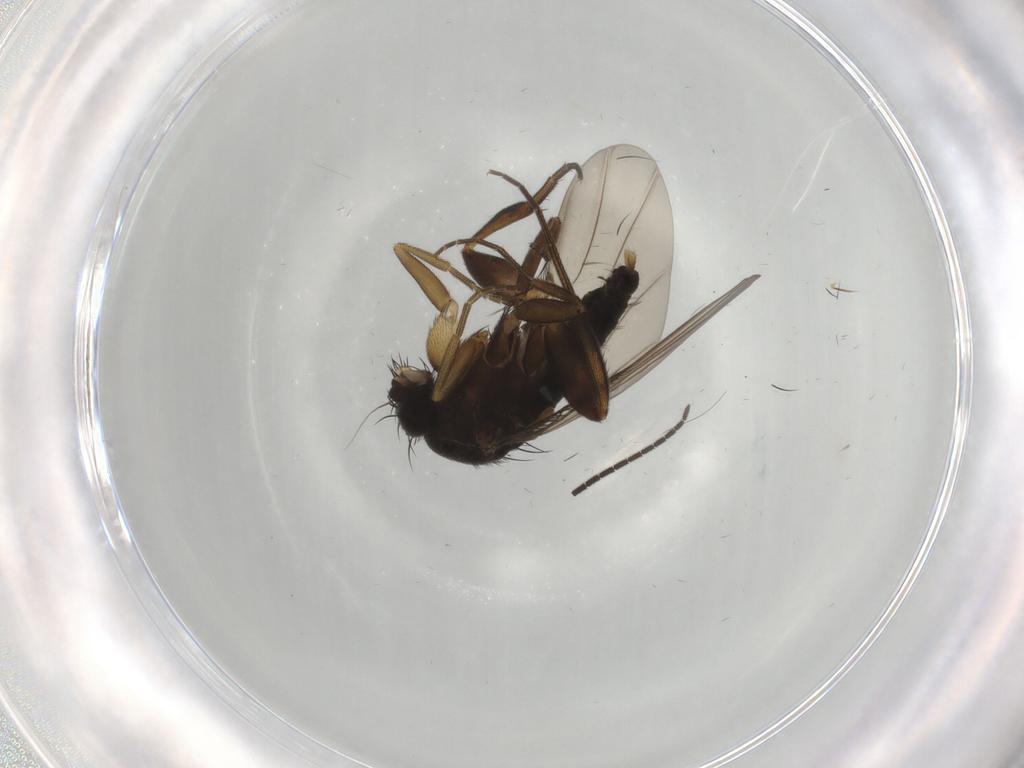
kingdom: Animalia
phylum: Arthropoda
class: Insecta
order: Diptera
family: Phoridae
